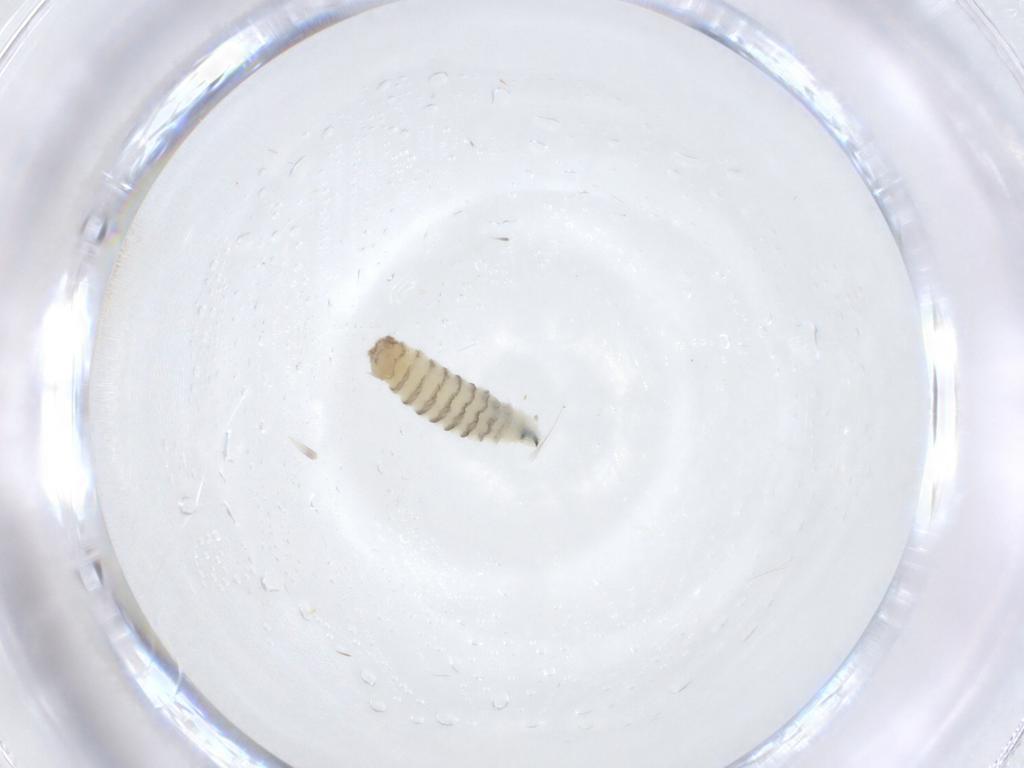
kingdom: Animalia
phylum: Arthropoda
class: Insecta
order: Diptera
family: Sarcophagidae
